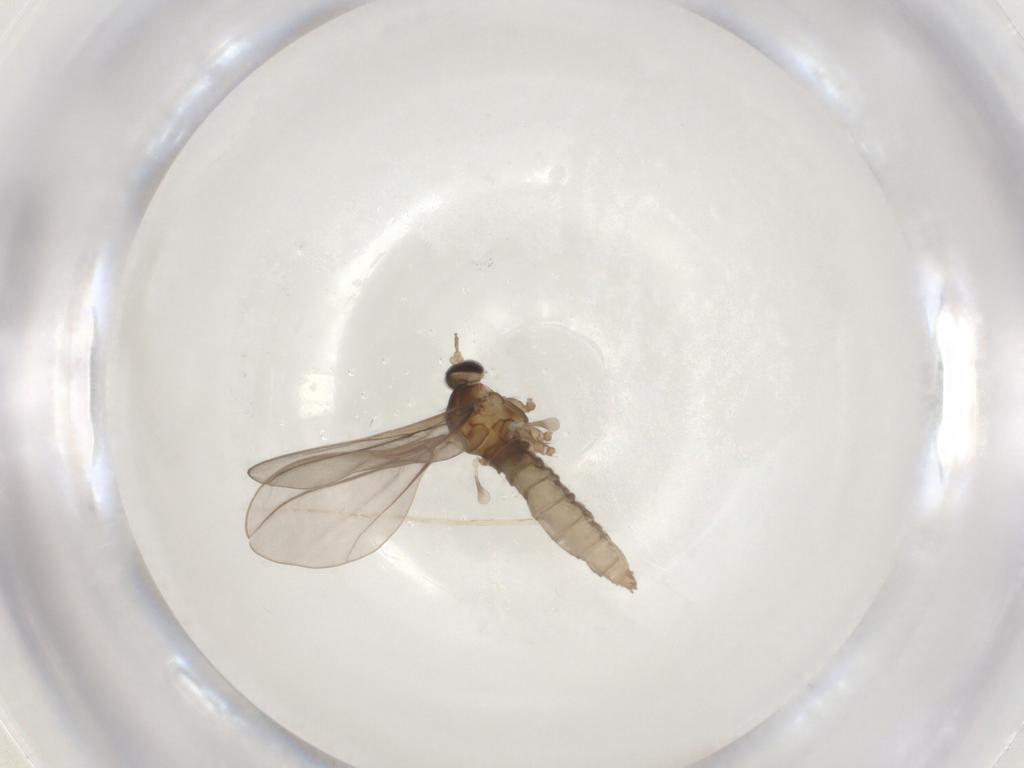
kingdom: Animalia
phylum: Arthropoda
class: Insecta
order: Diptera
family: Cecidomyiidae
